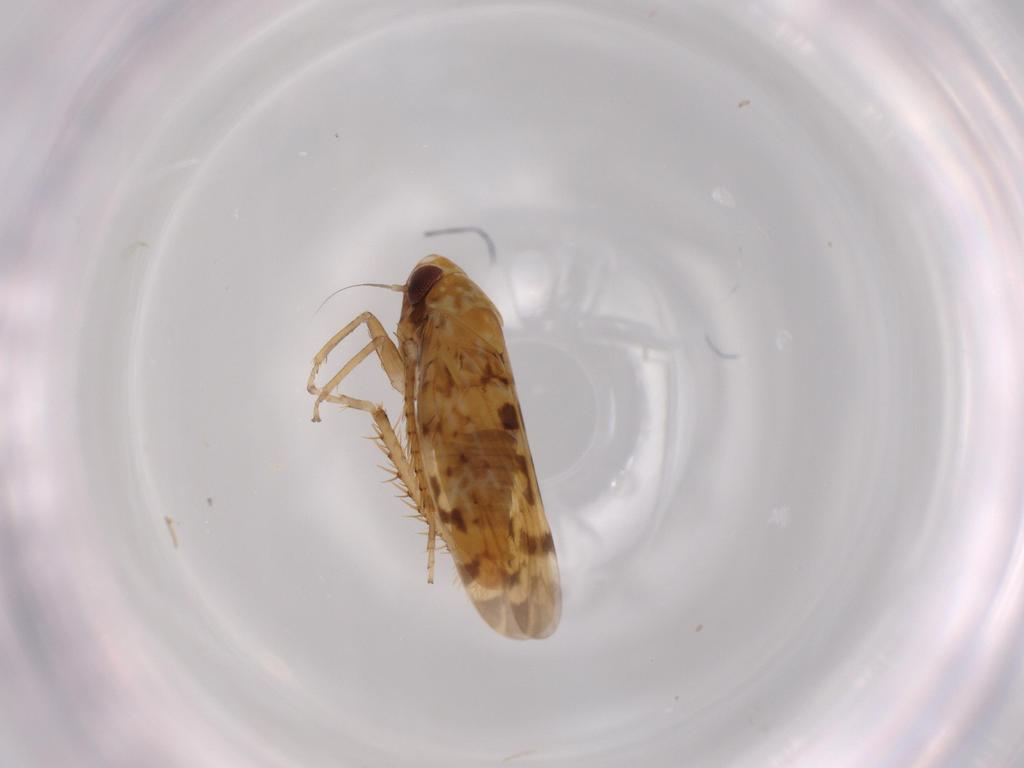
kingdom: Animalia
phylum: Arthropoda
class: Insecta
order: Hemiptera
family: Cicadellidae
